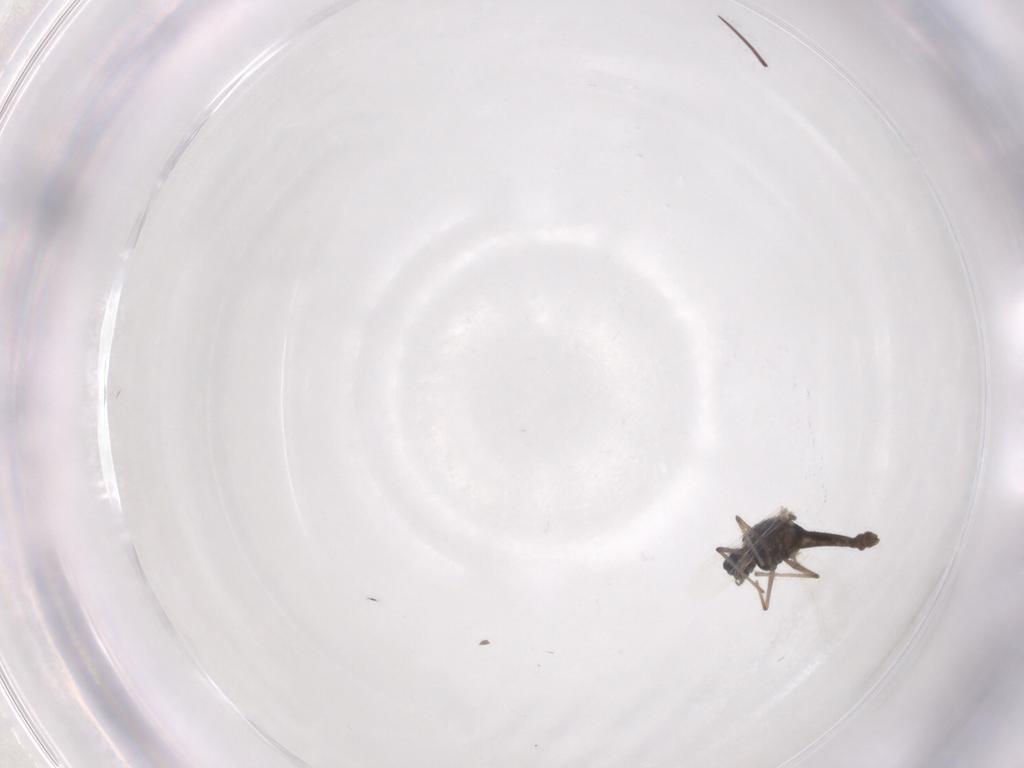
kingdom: Animalia
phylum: Arthropoda
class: Insecta
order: Diptera
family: Chironomidae
